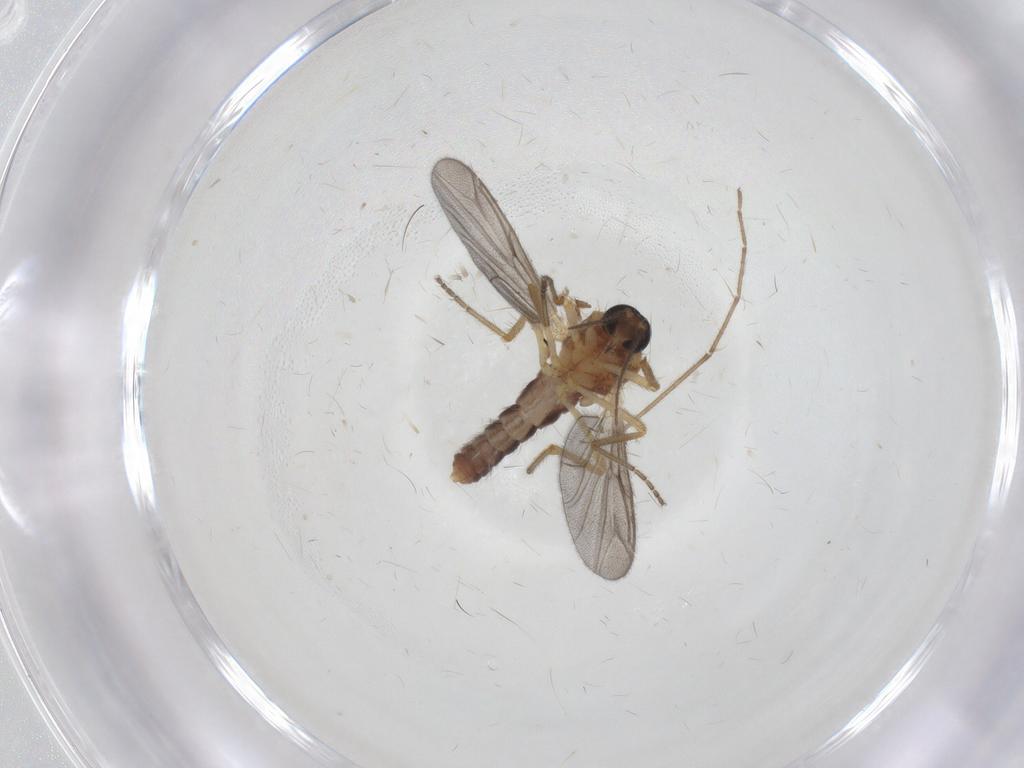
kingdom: Animalia
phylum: Arthropoda
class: Insecta
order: Diptera
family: Ceratopogonidae
